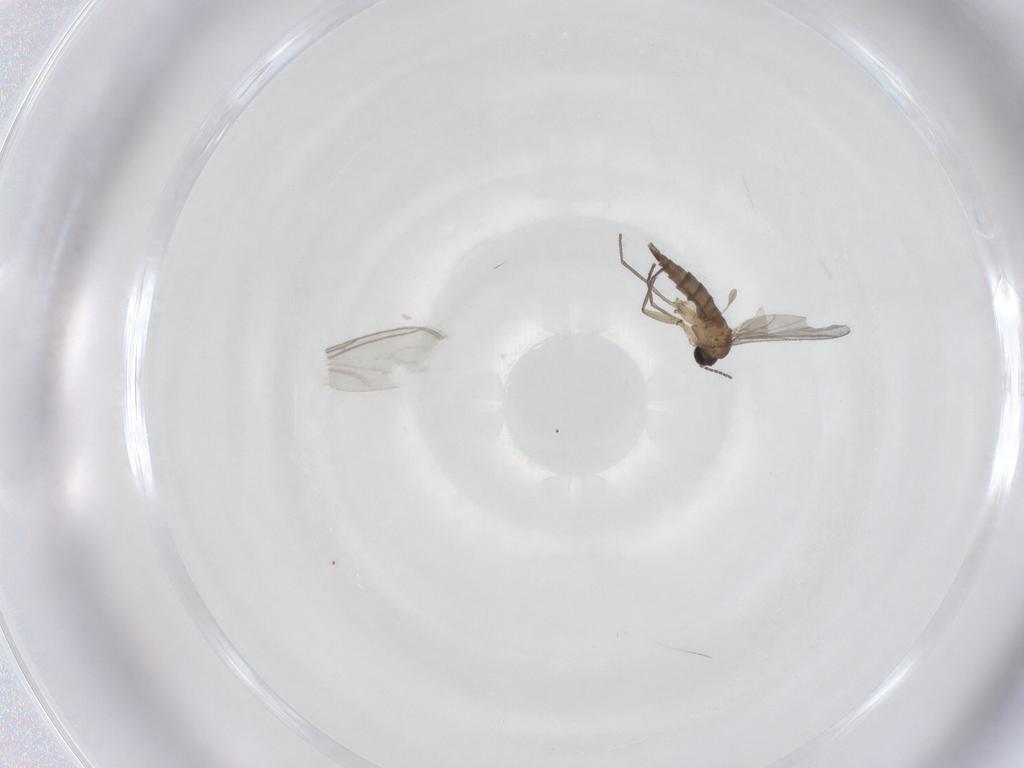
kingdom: Animalia
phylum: Arthropoda
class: Insecta
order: Diptera
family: Sciaridae
